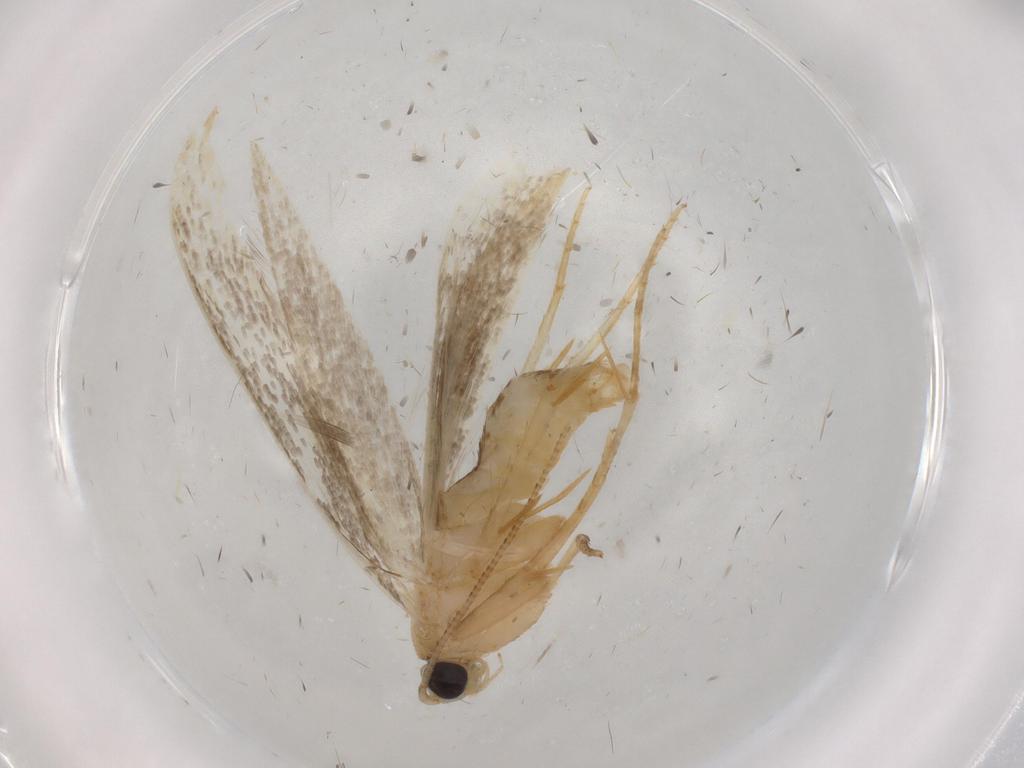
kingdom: Animalia
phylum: Arthropoda
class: Insecta
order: Lepidoptera
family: Tineidae
